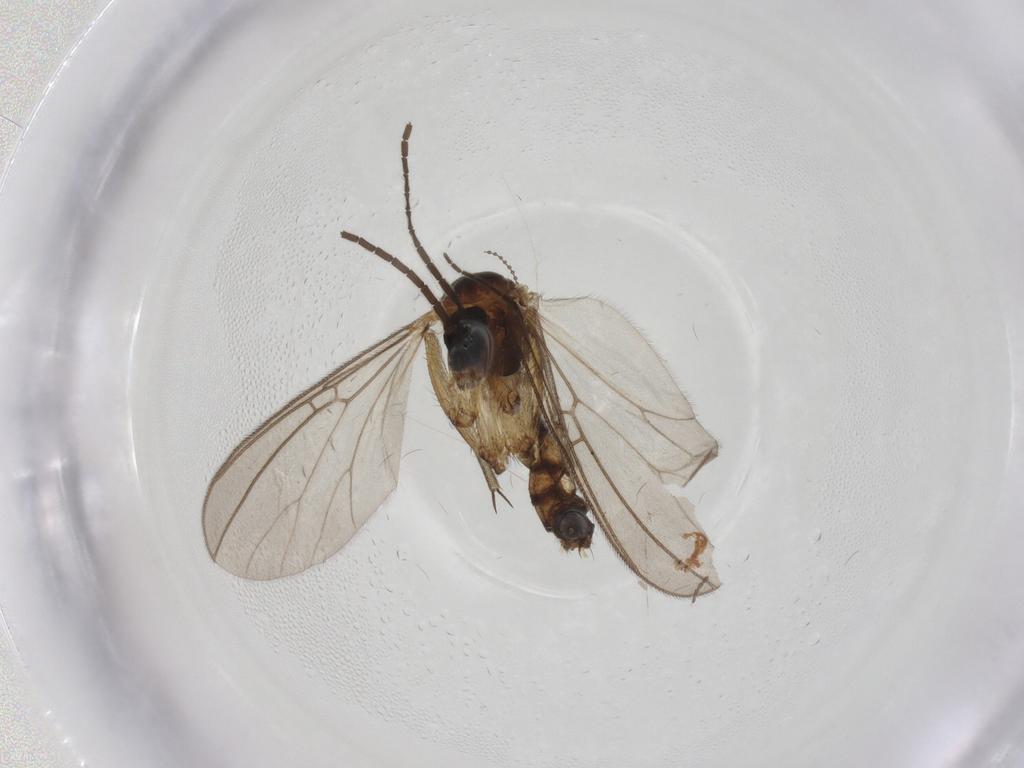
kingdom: Animalia
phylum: Arthropoda
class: Insecta
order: Diptera
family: Mycetophilidae
